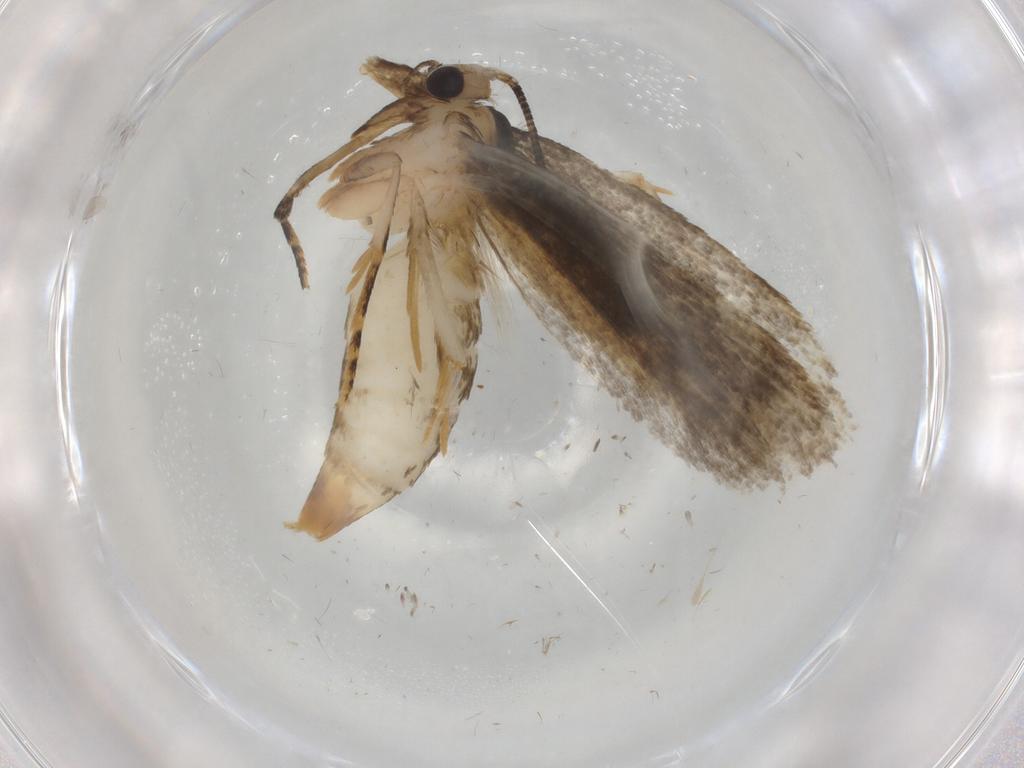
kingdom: Animalia
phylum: Arthropoda
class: Insecta
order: Lepidoptera
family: Tineidae
